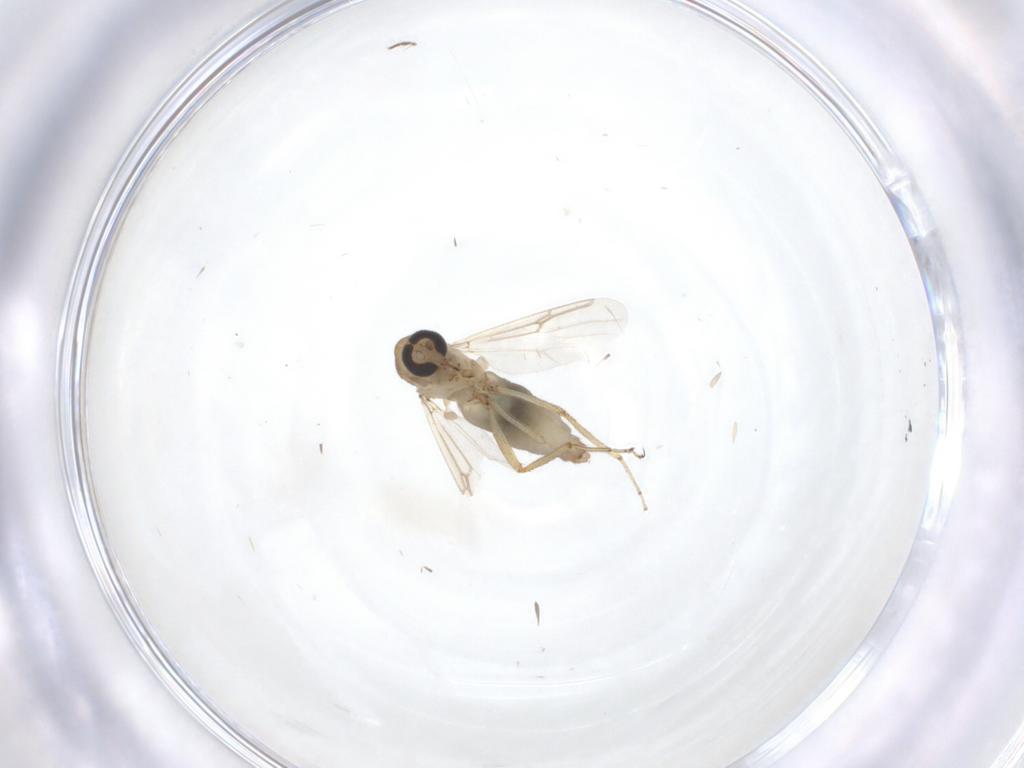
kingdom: Animalia
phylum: Arthropoda
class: Insecta
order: Diptera
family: Ceratopogonidae
